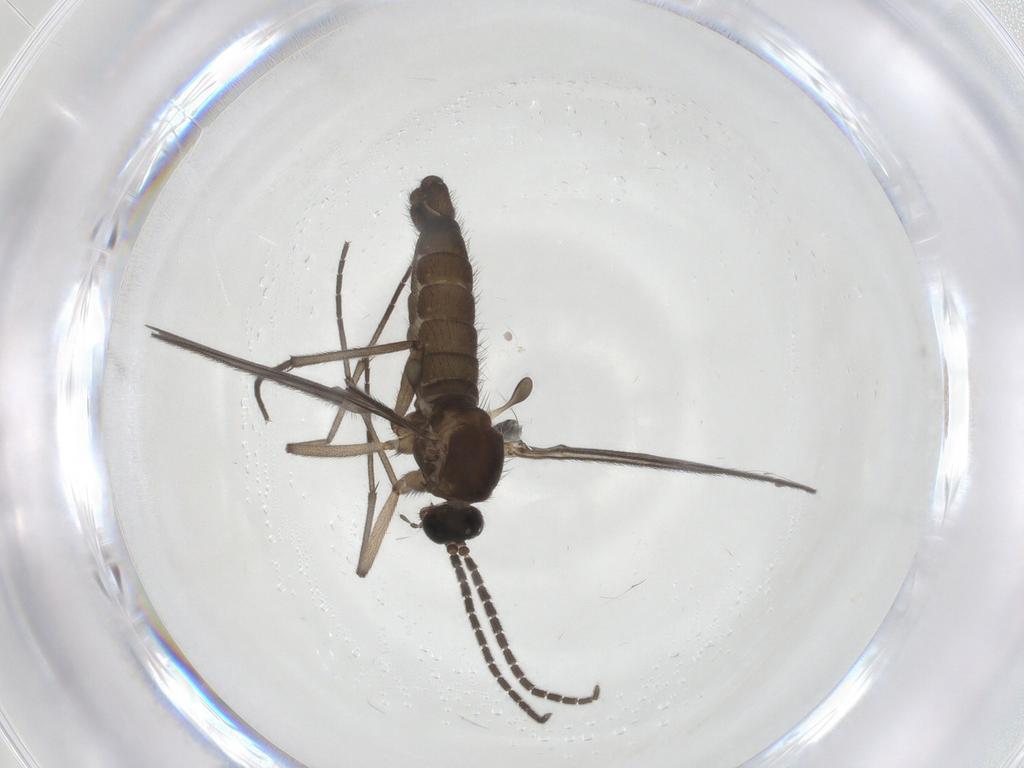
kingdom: Animalia
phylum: Arthropoda
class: Insecta
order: Diptera
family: Sciaridae
